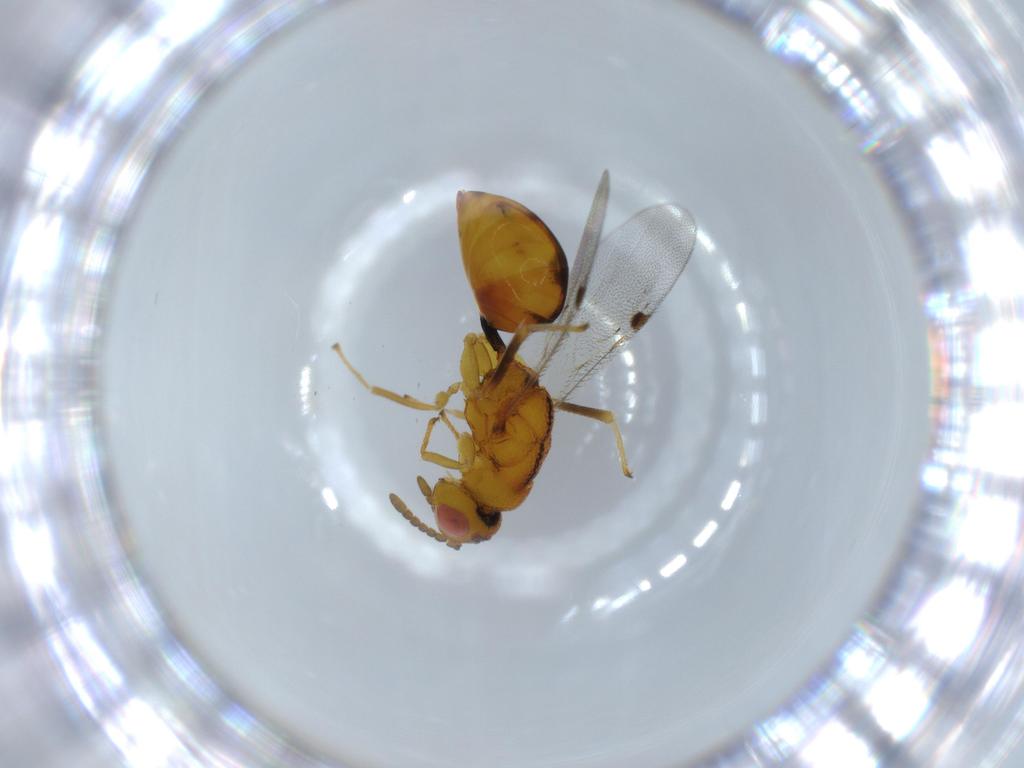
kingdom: Animalia
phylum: Arthropoda
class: Insecta
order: Hymenoptera
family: Eurytomidae
